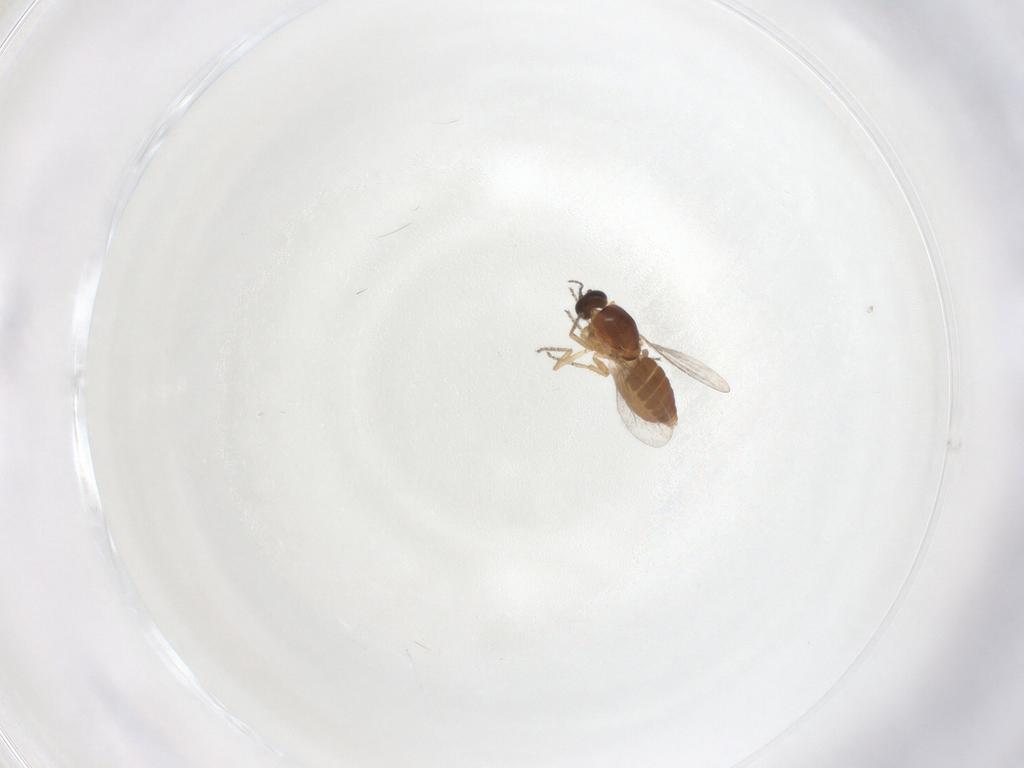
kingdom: Animalia
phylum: Arthropoda
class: Insecta
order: Diptera
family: Ceratopogonidae
